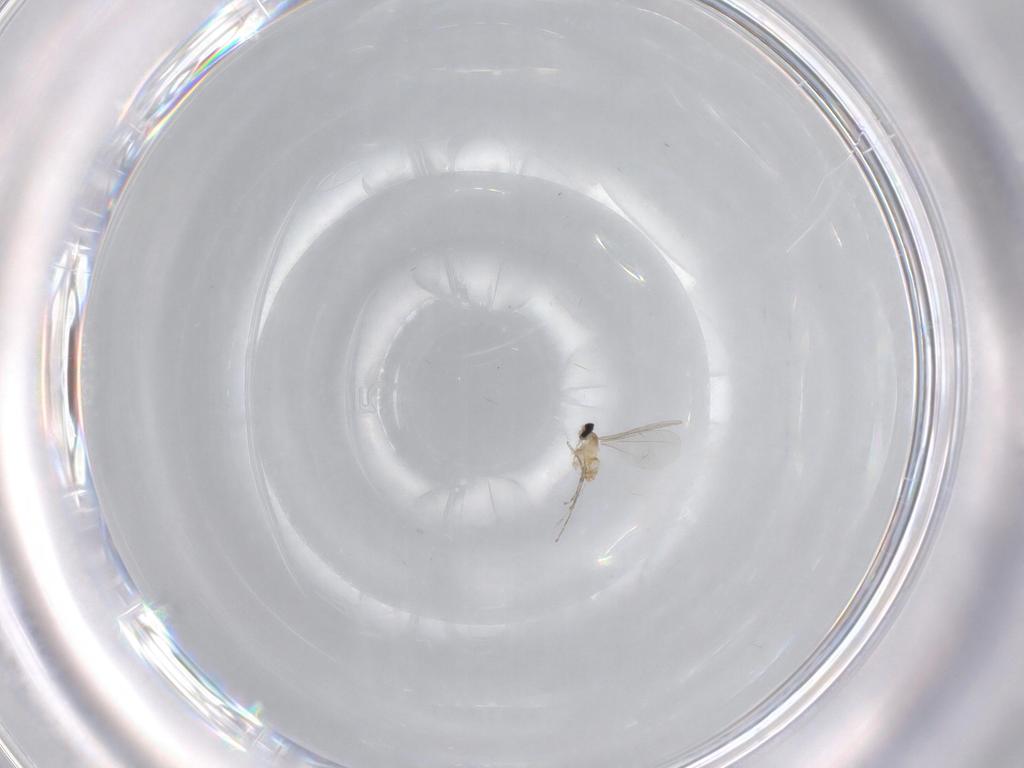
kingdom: Animalia
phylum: Arthropoda
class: Insecta
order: Diptera
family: Cecidomyiidae
